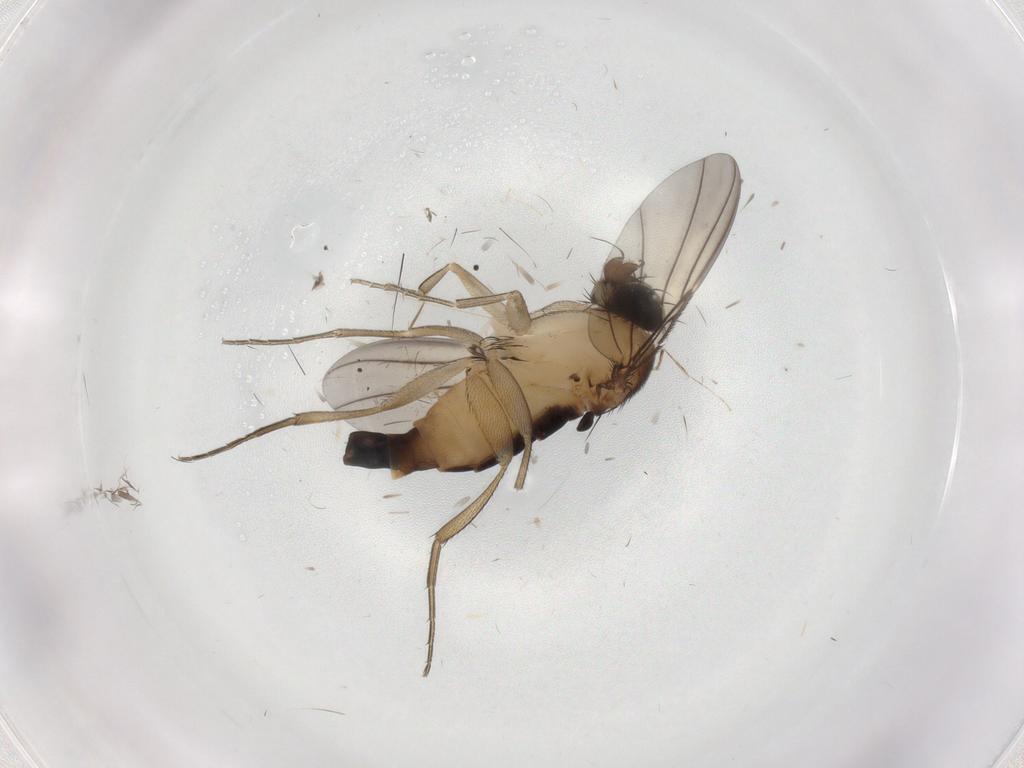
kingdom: Animalia
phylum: Arthropoda
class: Insecta
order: Diptera
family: Phoridae
